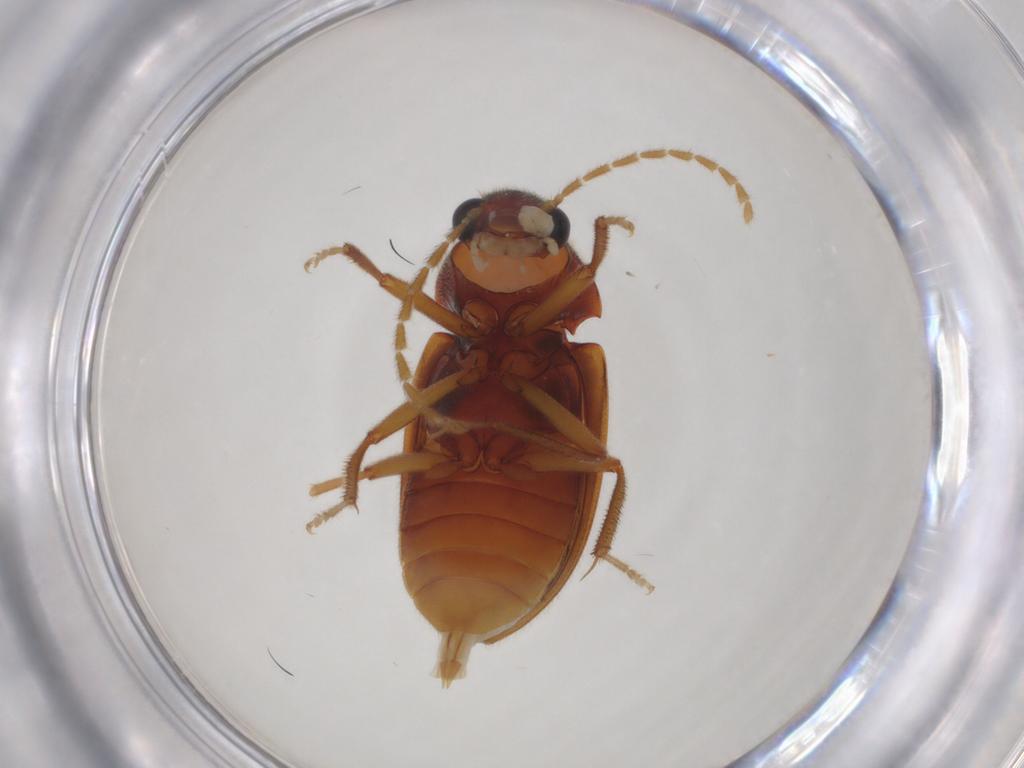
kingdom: Animalia
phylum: Arthropoda
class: Insecta
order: Coleoptera
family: Ptilodactylidae
